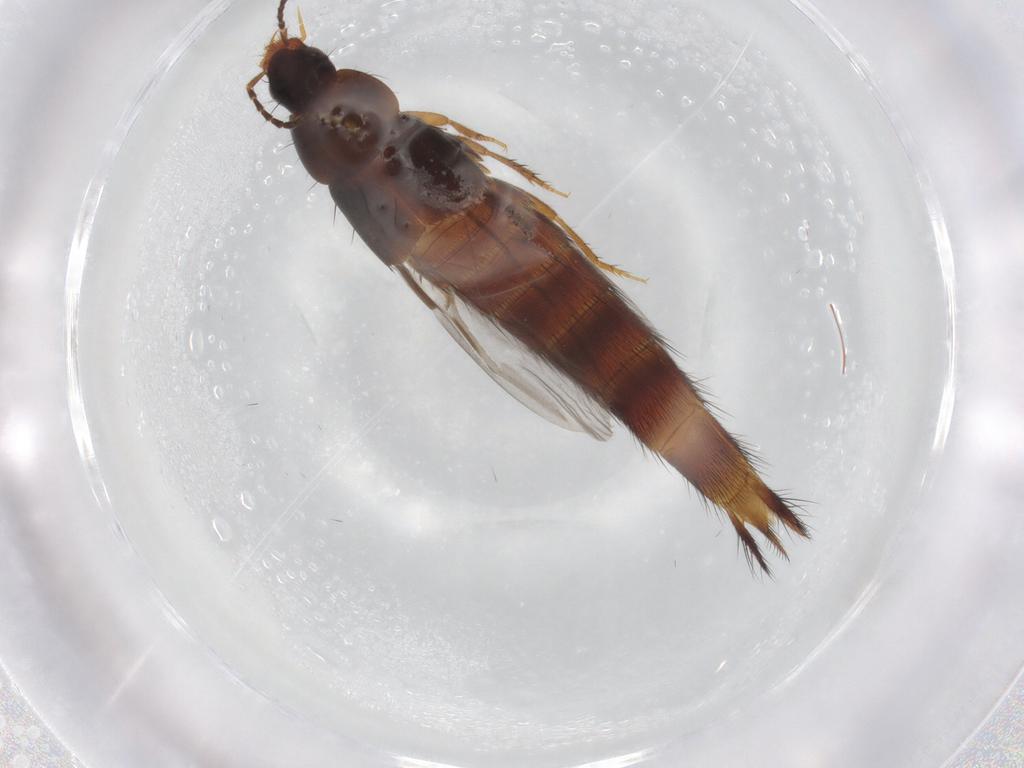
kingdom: Animalia
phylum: Arthropoda
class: Insecta
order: Coleoptera
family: Staphylinidae
